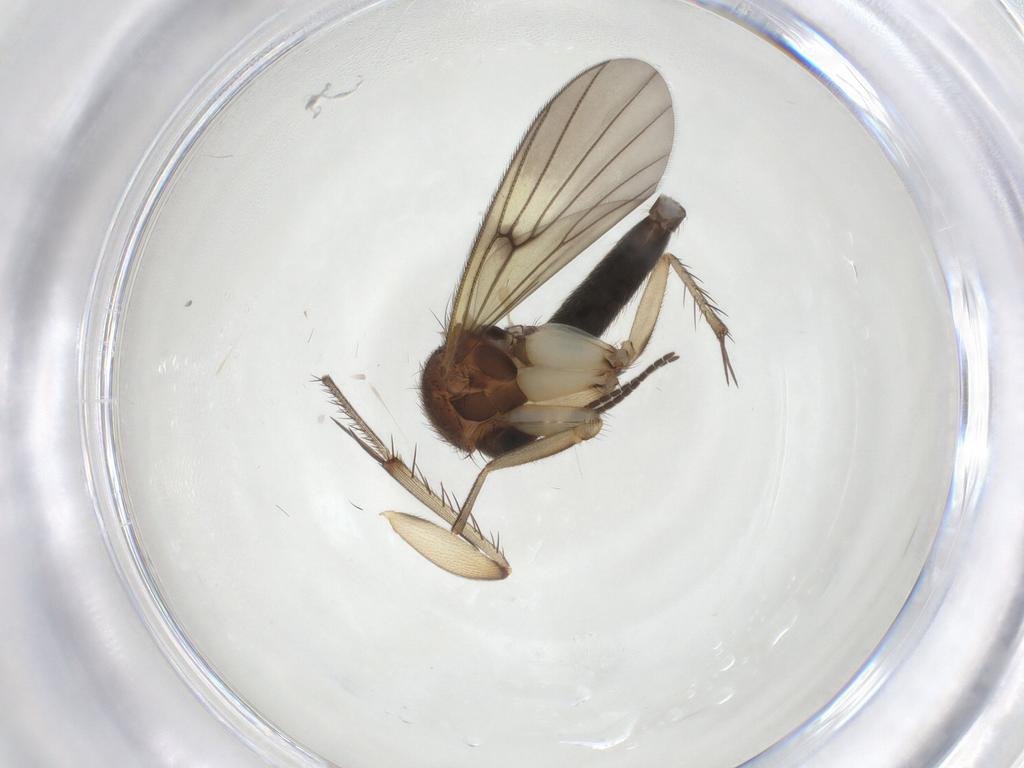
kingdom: Animalia
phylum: Arthropoda
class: Insecta
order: Diptera
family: Mycetophilidae
